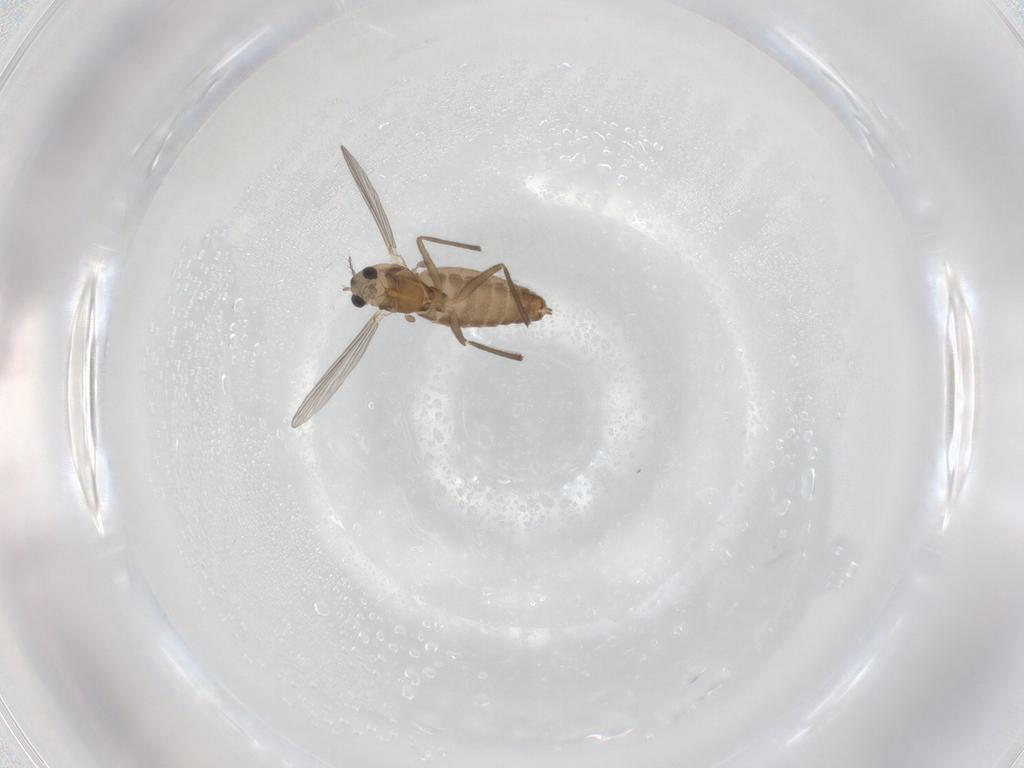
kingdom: Animalia
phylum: Arthropoda
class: Insecta
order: Diptera
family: Chironomidae
